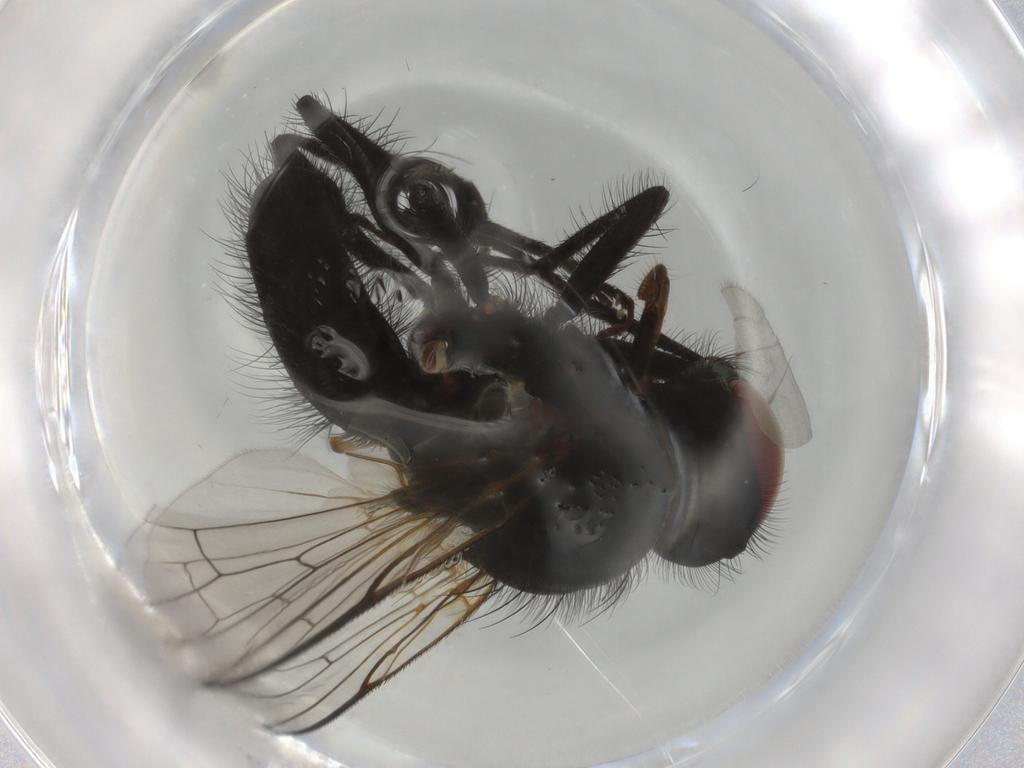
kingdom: Animalia
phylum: Arthropoda
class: Insecta
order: Diptera
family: Anthomyiidae
